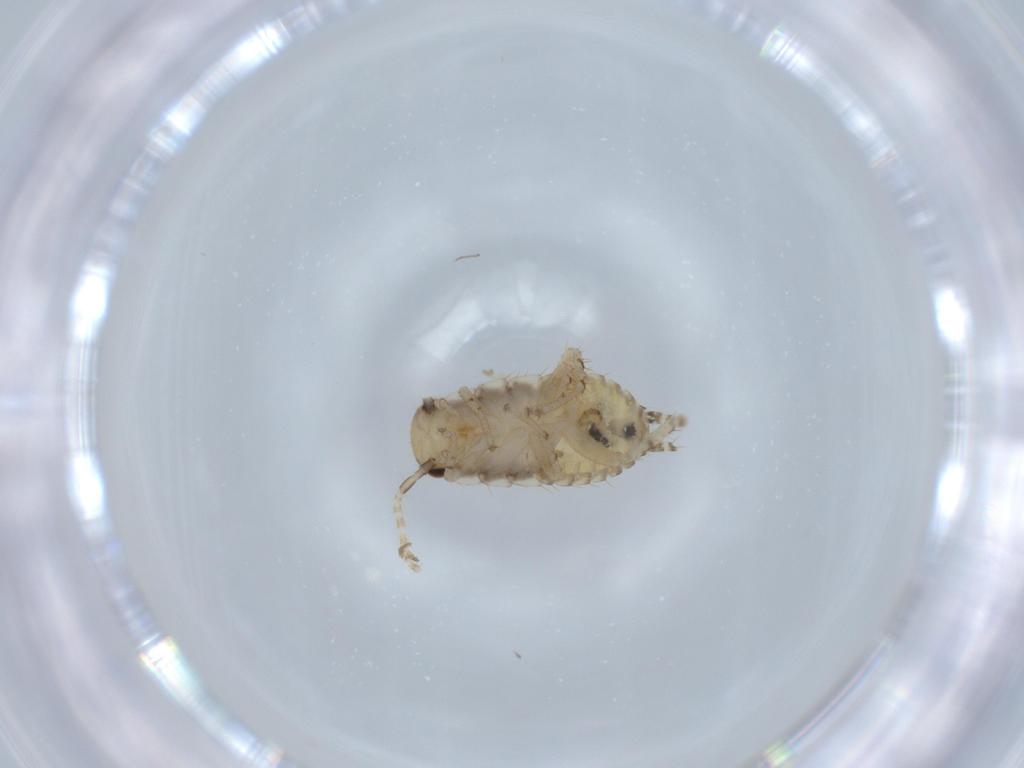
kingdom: Animalia
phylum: Arthropoda
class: Insecta
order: Blattodea
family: Ectobiidae
